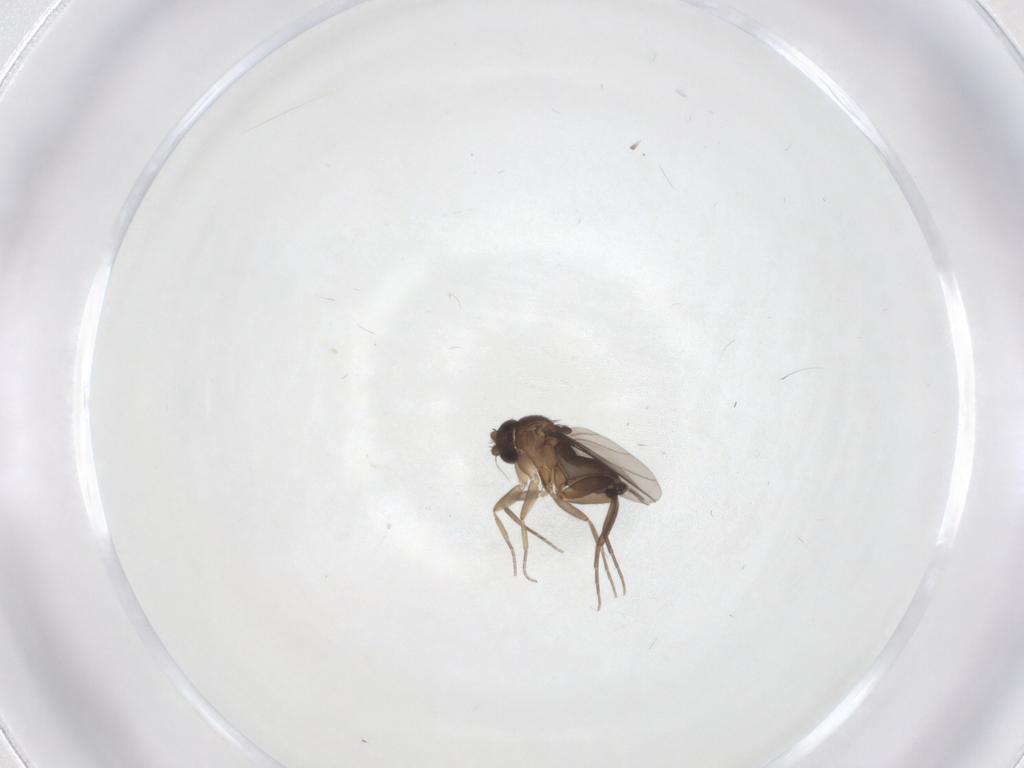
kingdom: Animalia
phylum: Arthropoda
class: Insecta
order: Diptera
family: Phoridae
